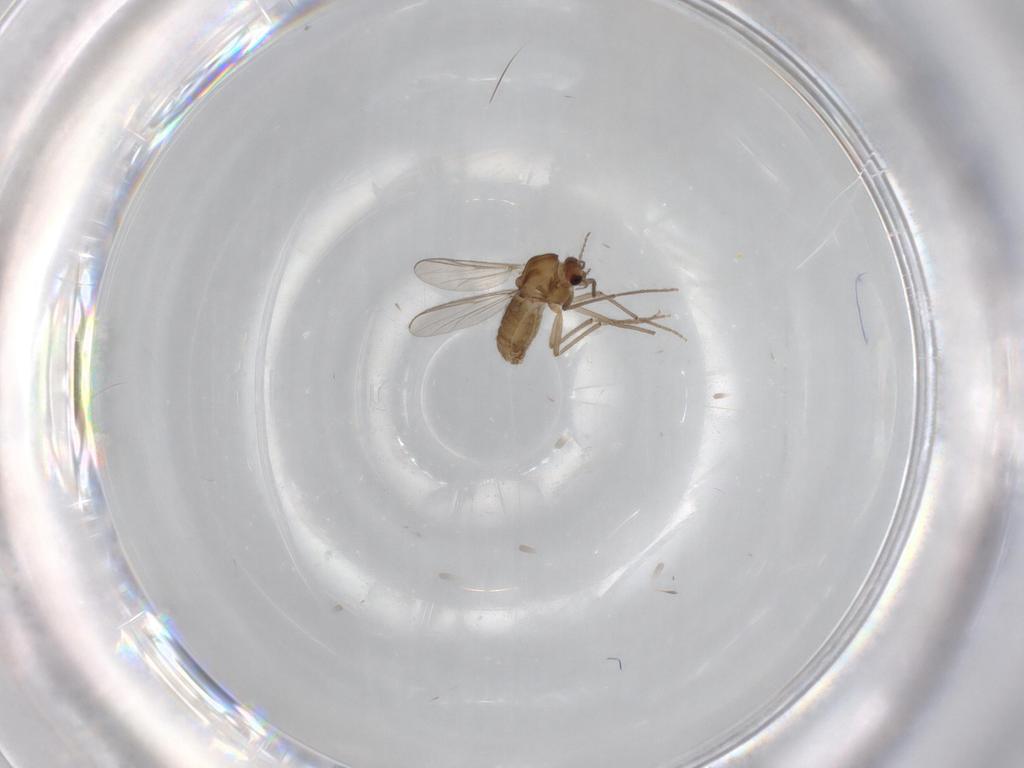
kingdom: Animalia
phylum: Arthropoda
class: Insecta
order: Diptera
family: Chironomidae
